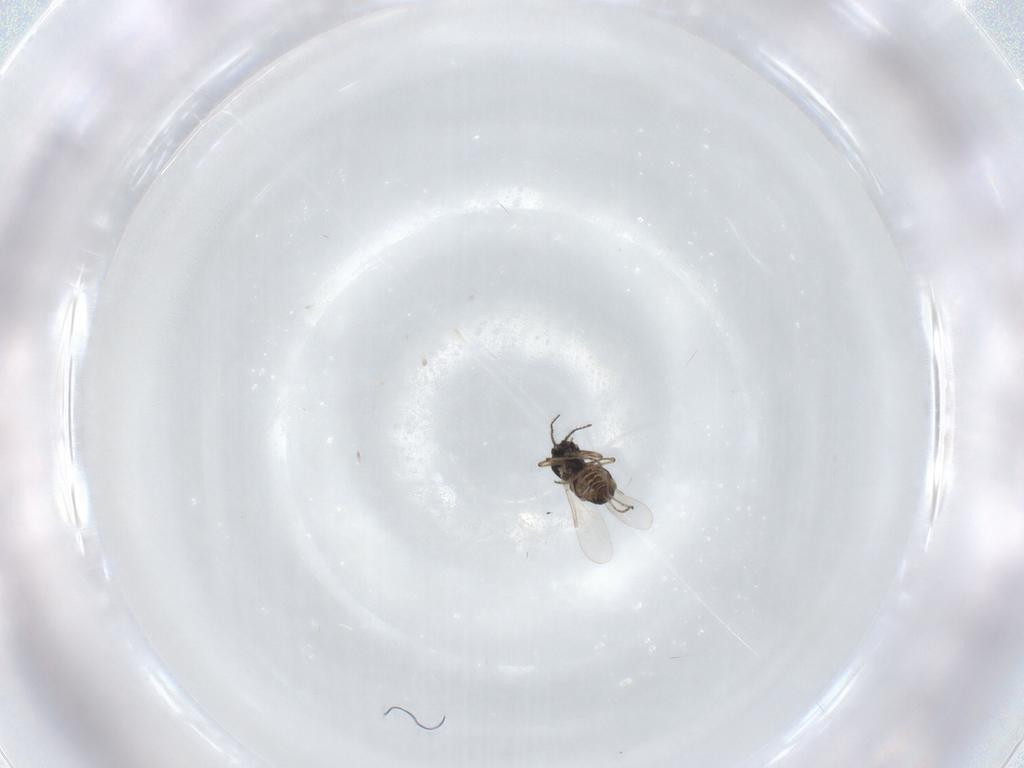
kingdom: Animalia
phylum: Arthropoda
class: Insecta
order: Diptera
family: Ceratopogonidae
